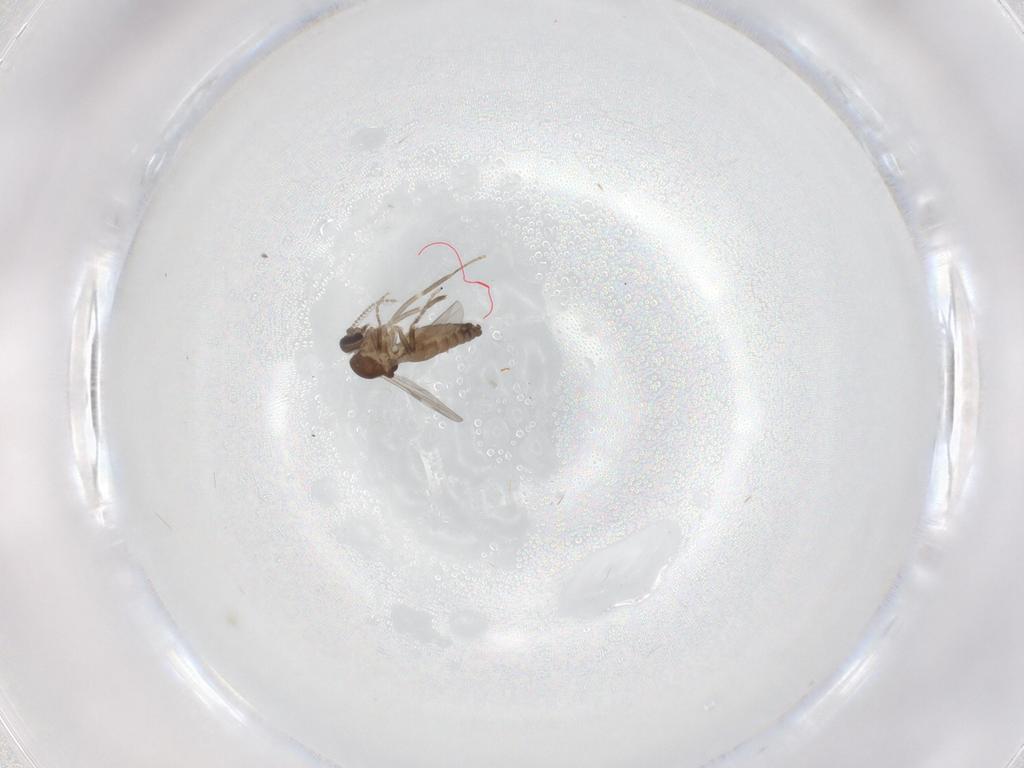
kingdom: Animalia
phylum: Arthropoda
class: Insecta
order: Diptera
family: Ceratopogonidae
